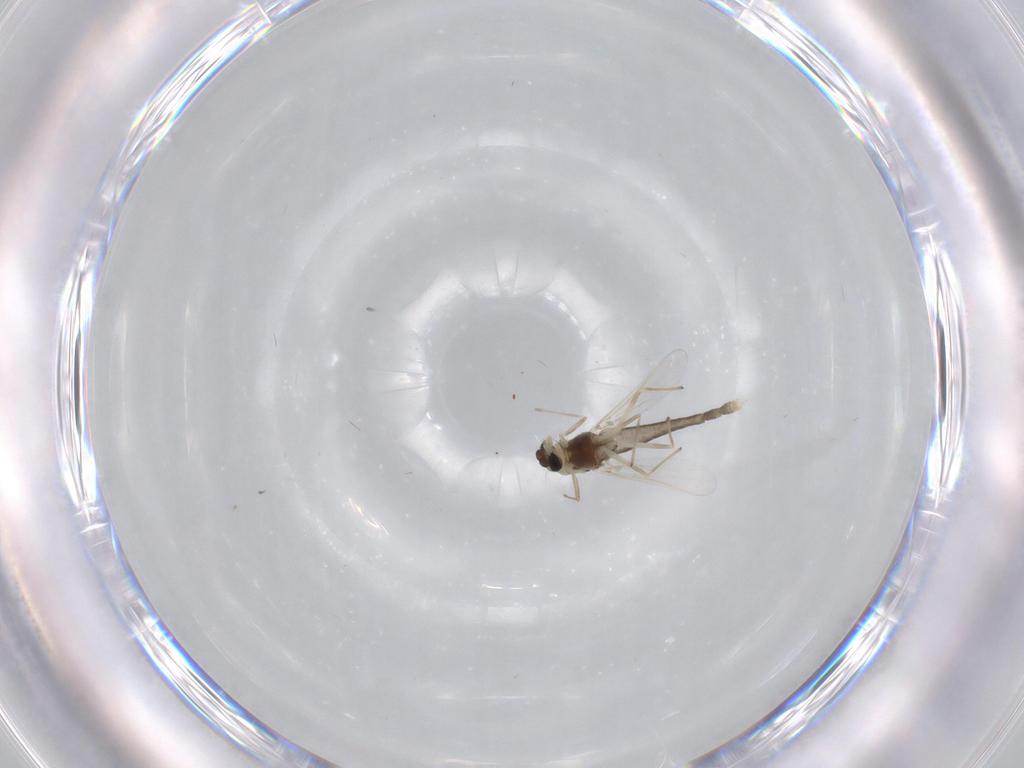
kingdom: Animalia
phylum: Arthropoda
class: Insecta
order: Diptera
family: Chironomidae
